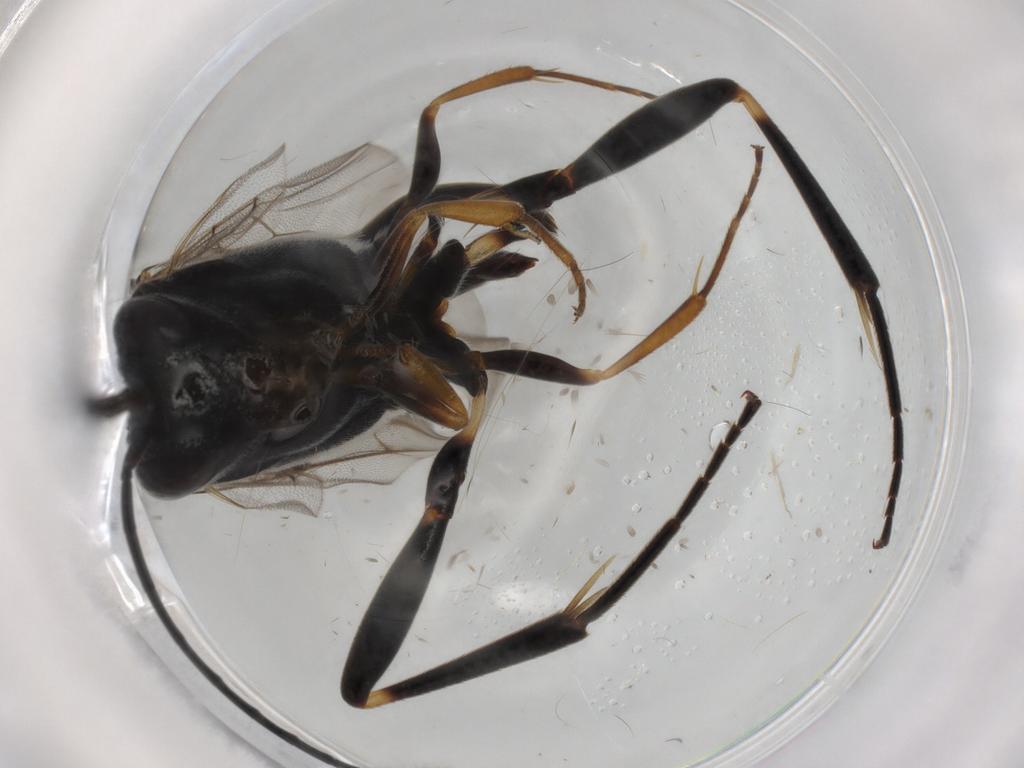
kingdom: Animalia
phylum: Arthropoda
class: Insecta
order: Hymenoptera
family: Evaniidae
